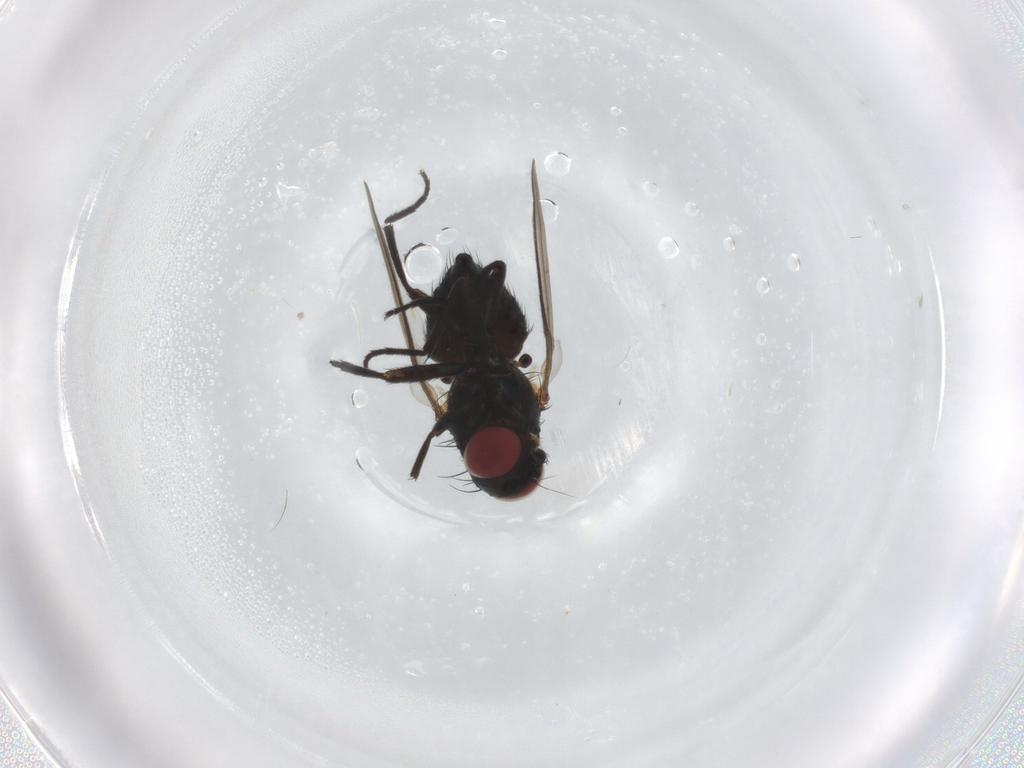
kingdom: Animalia
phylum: Arthropoda
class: Insecta
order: Diptera
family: Agromyzidae
